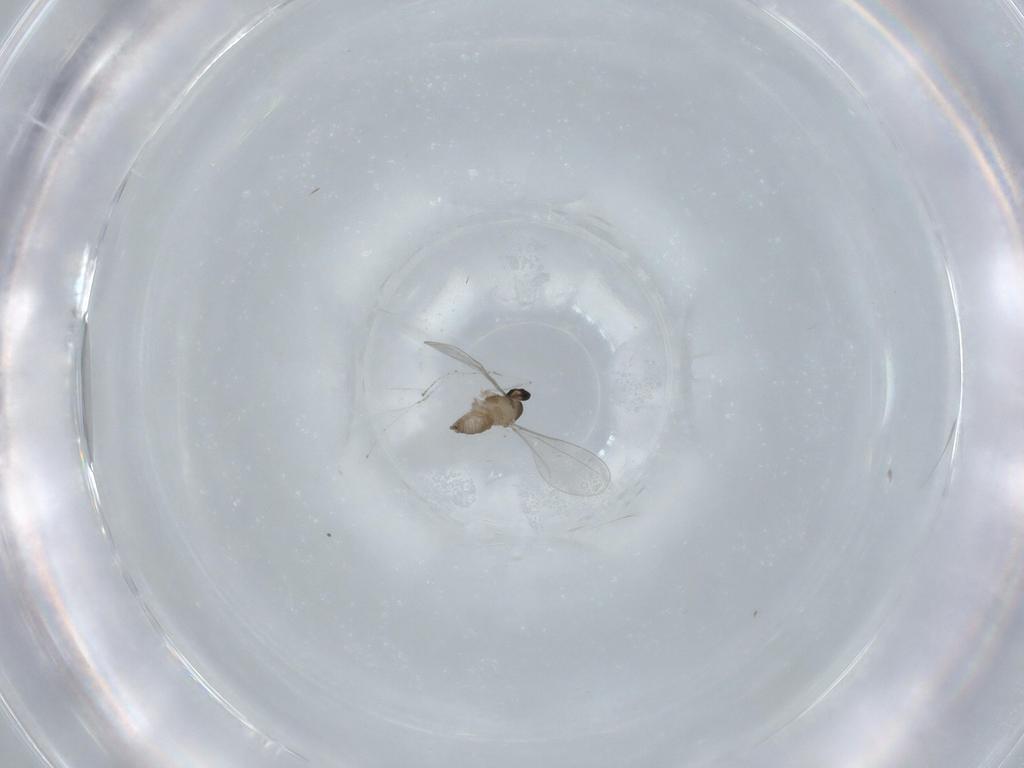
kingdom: Animalia
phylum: Arthropoda
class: Insecta
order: Diptera
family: Cecidomyiidae
